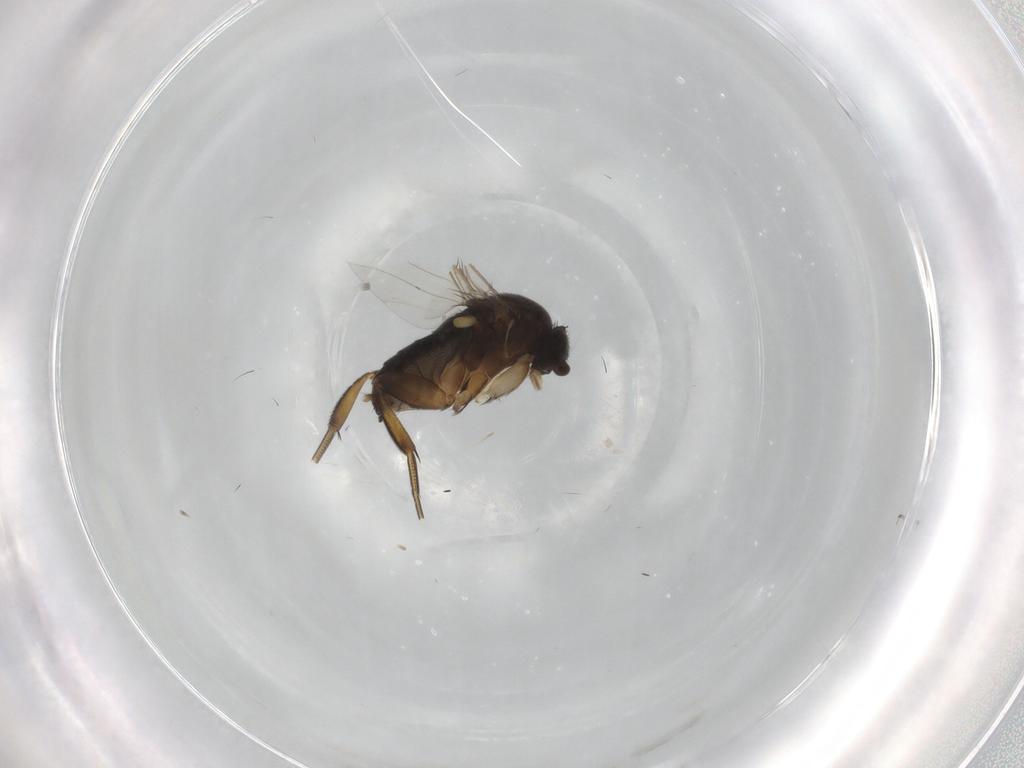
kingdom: Animalia
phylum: Arthropoda
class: Insecta
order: Diptera
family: Phoridae
